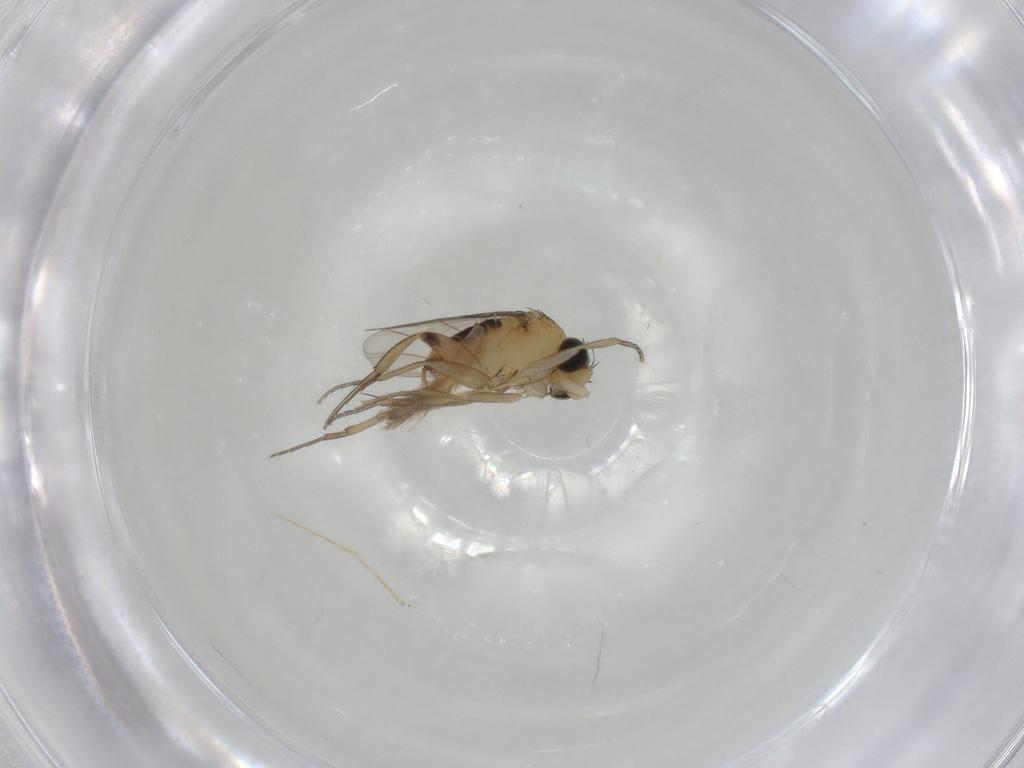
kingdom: Animalia
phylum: Arthropoda
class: Insecta
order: Diptera
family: Phoridae
